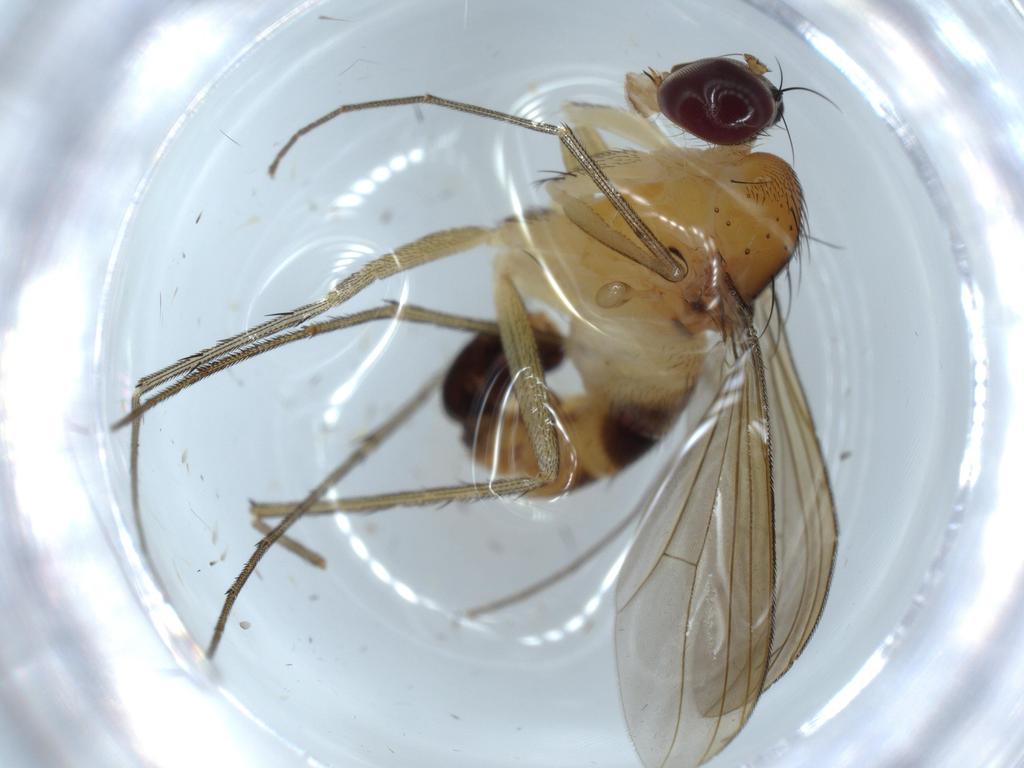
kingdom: Animalia
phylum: Arthropoda
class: Insecta
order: Diptera
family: Dolichopodidae
